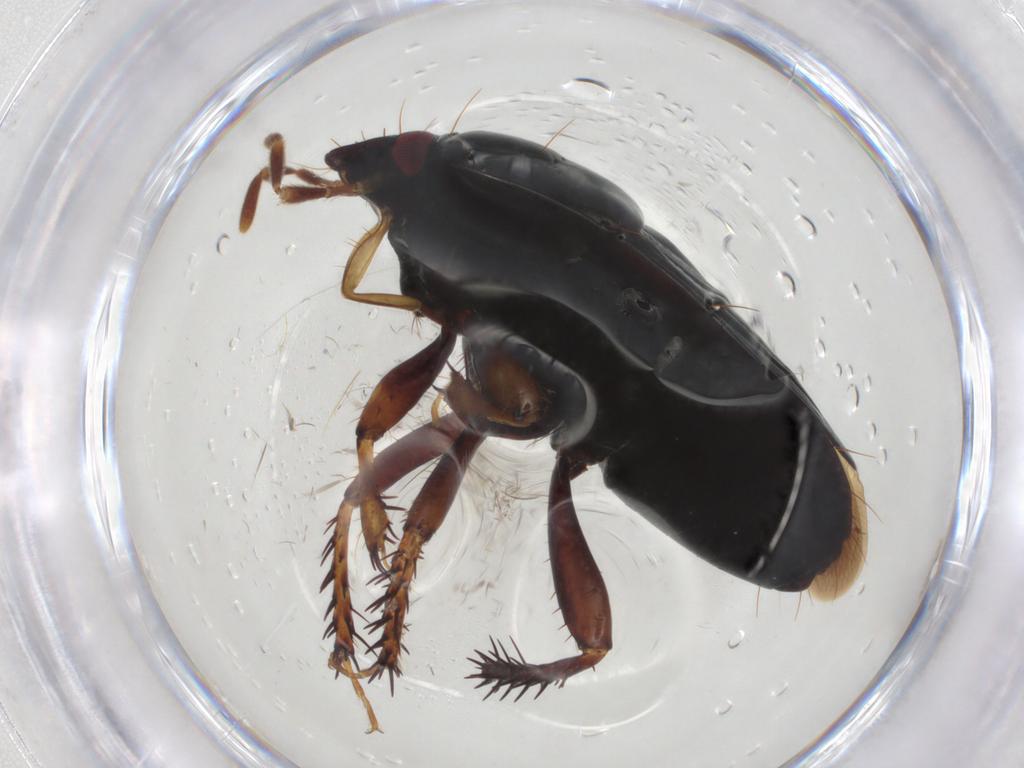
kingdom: Animalia
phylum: Arthropoda
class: Insecta
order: Hemiptera
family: Cydnidae
